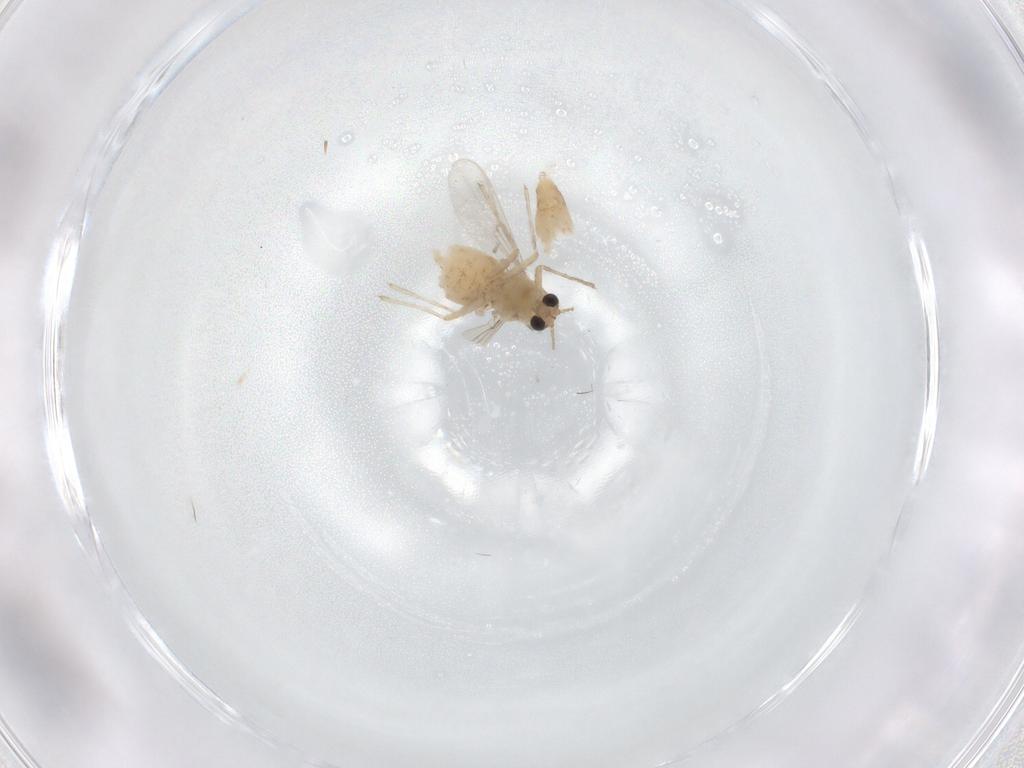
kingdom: Animalia
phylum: Arthropoda
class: Insecta
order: Diptera
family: Chironomidae
